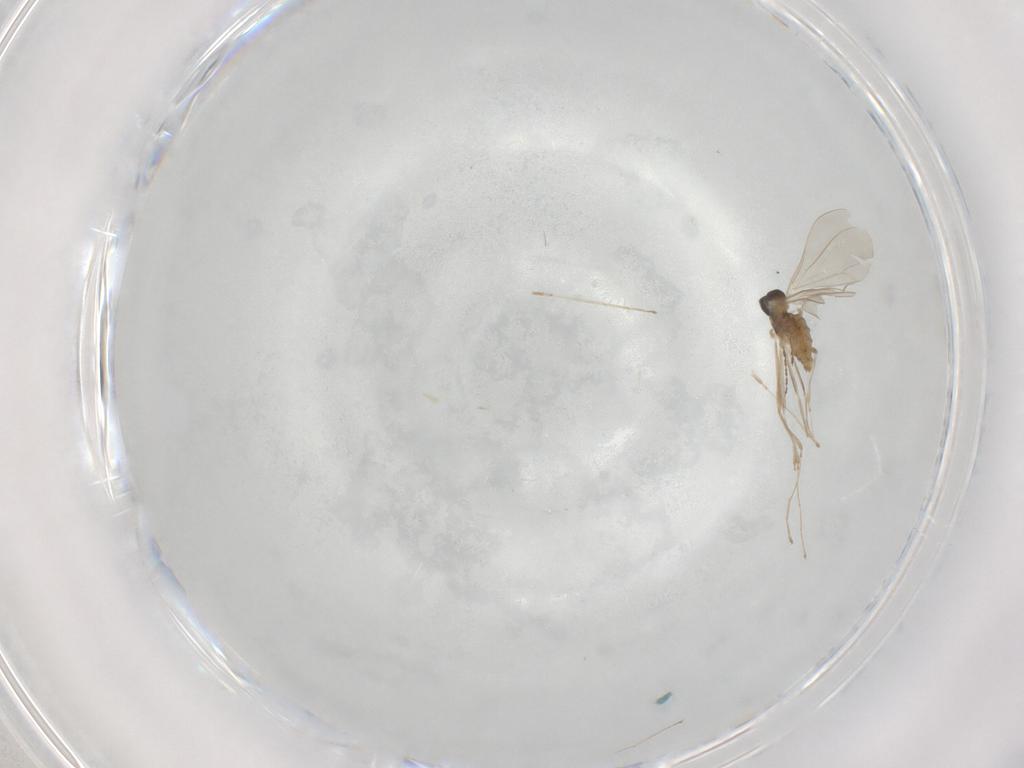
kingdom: Animalia
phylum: Arthropoda
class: Insecta
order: Diptera
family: Cecidomyiidae
